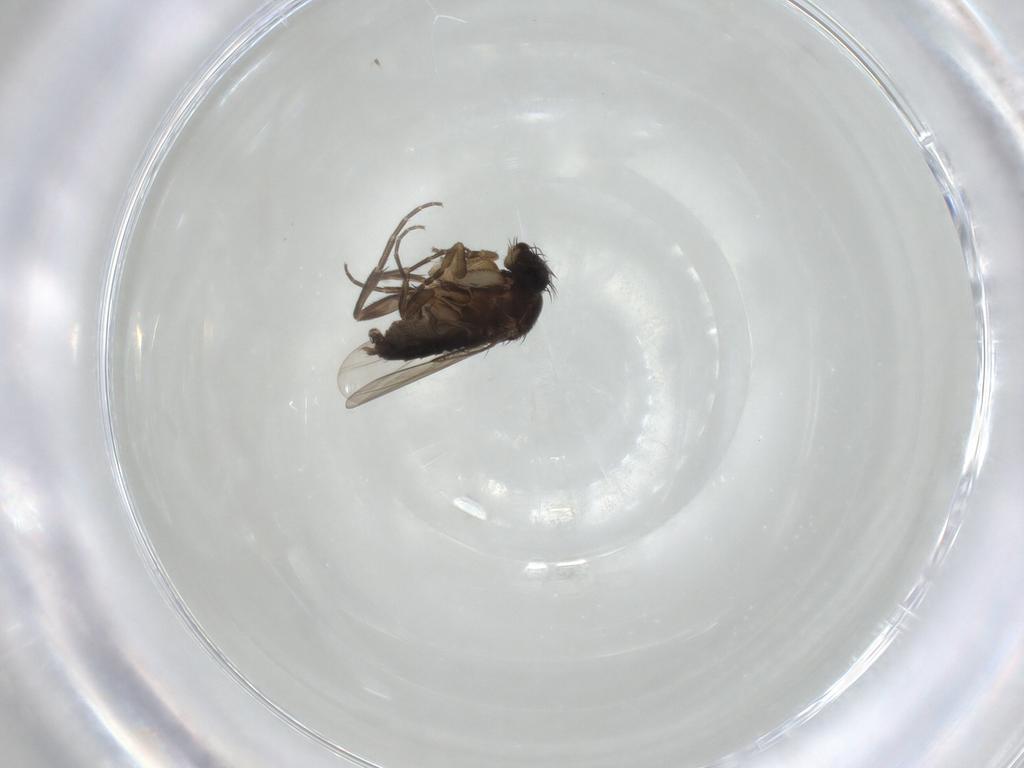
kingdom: Animalia
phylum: Arthropoda
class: Insecta
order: Diptera
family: Phoridae
